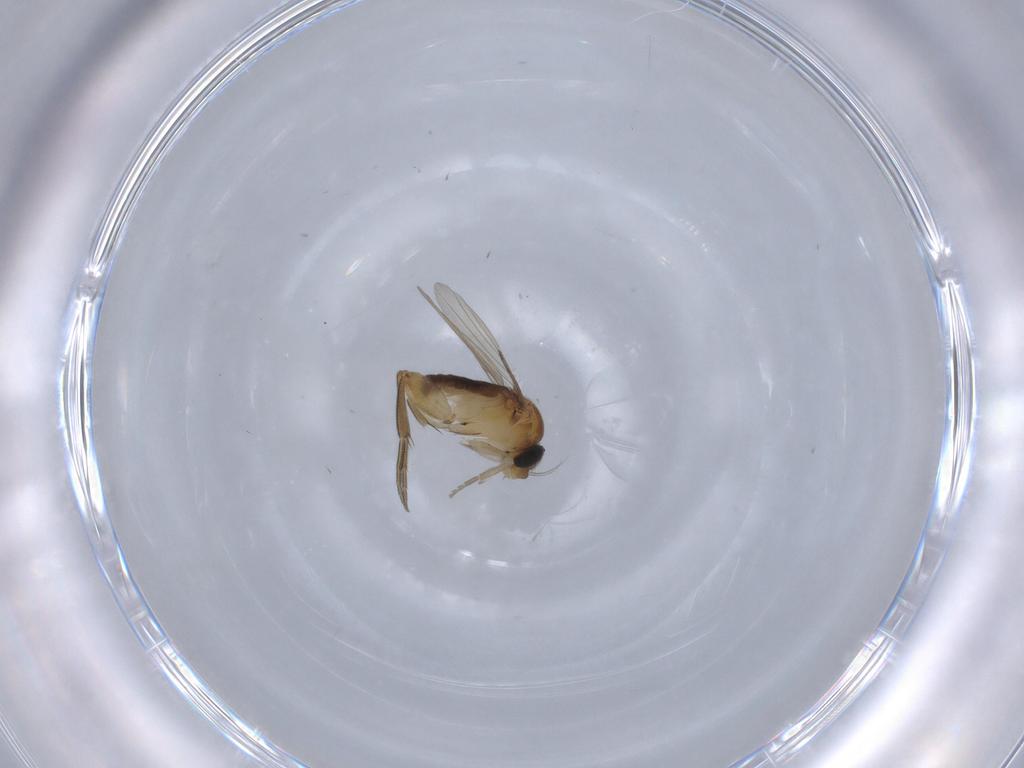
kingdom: Animalia
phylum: Arthropoda
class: Insecta
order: Diptera
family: Phoridae
